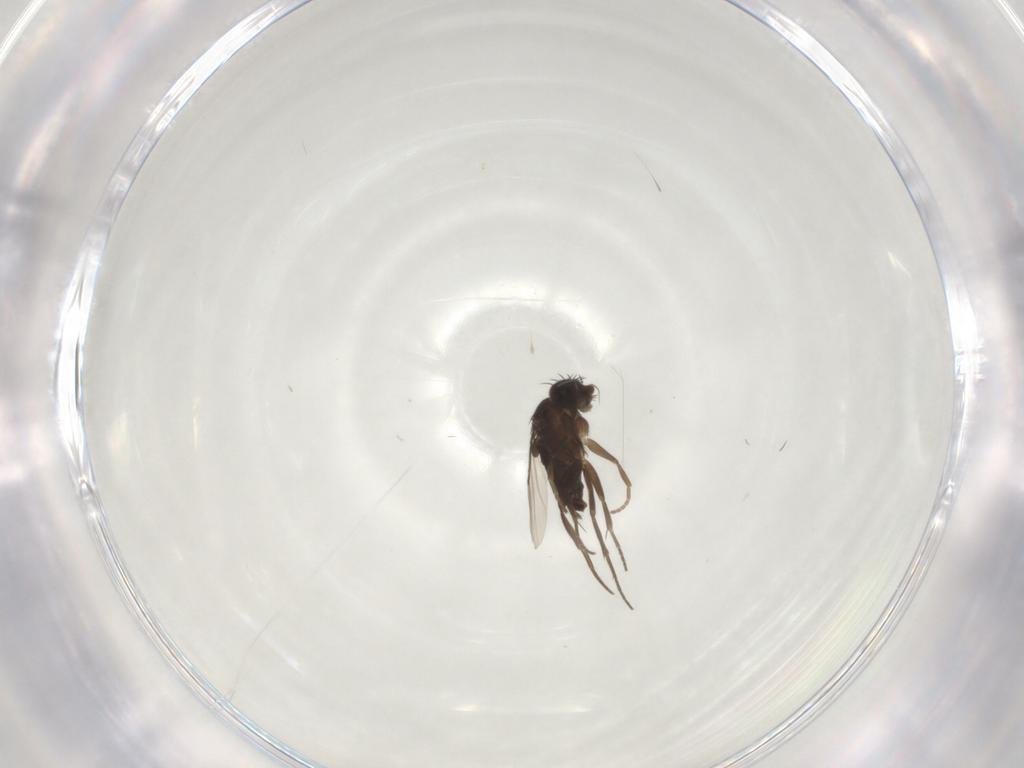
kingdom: Animalia
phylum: Arthropoda
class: Insecta
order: Diptera
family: Phoridae
